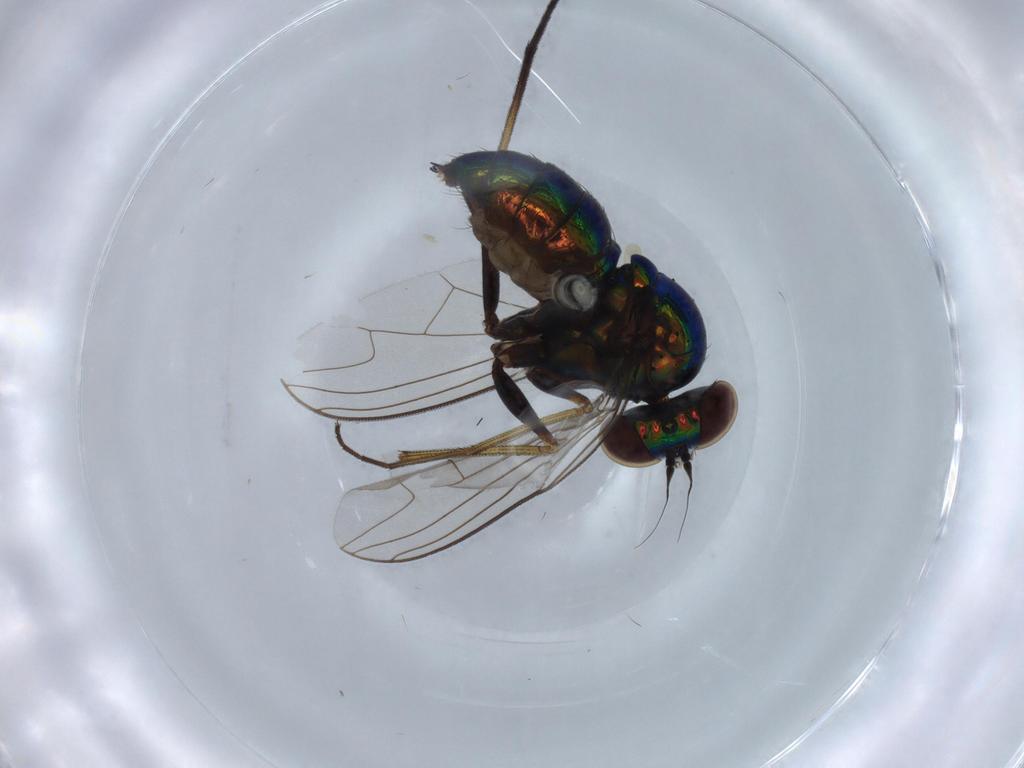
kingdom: Animalia
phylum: Arthropoda
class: Insecta
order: Diptera
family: Dolichopodidae
